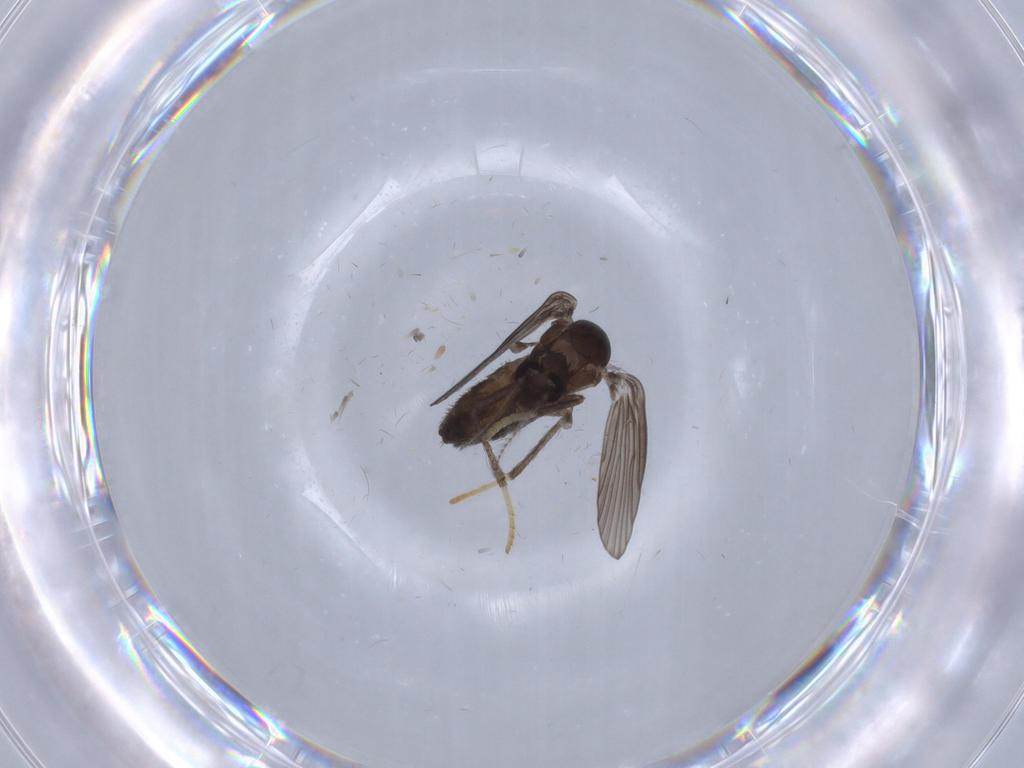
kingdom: Animalia
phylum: Arthropoda
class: Insecta
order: Diptera
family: Psychodidae
